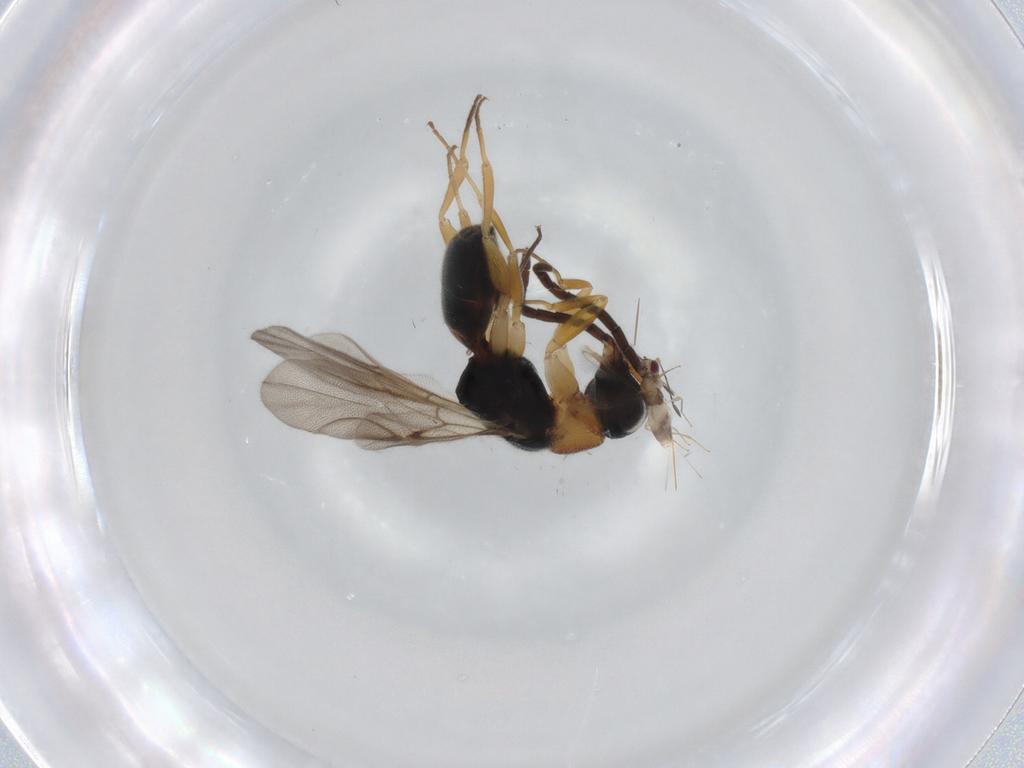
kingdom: Animalia
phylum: Arthropoda
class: Insecta
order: Hymenoptera
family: Chrysididae
